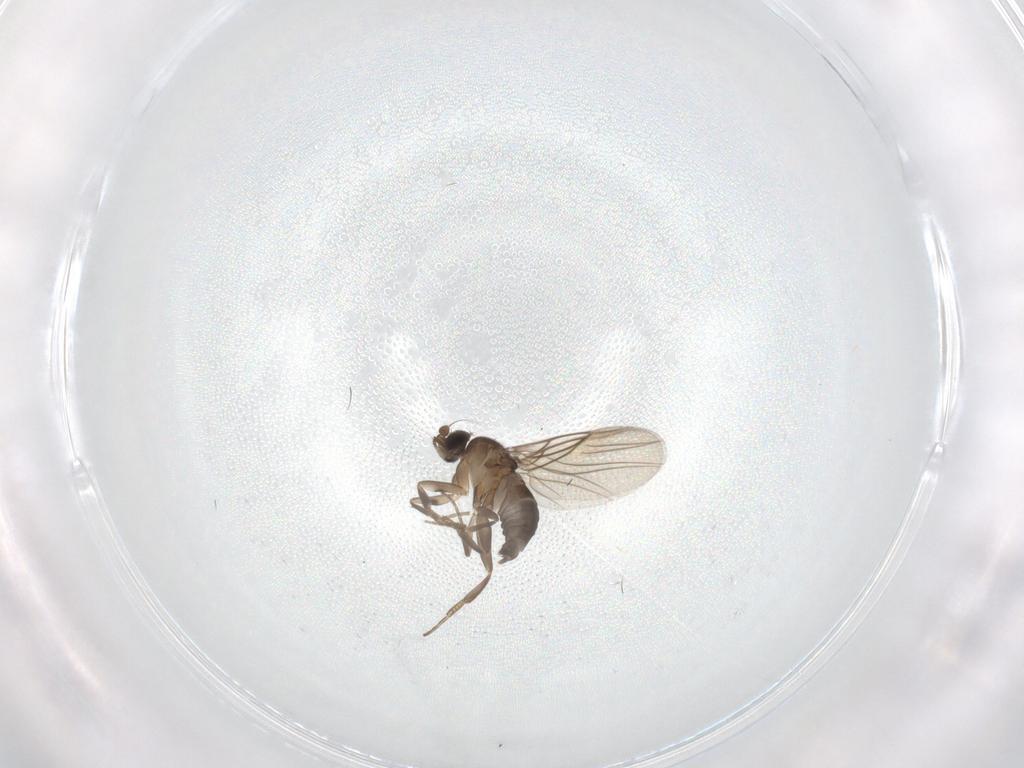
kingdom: Animalia
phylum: Arthropoda
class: Insecta
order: Diptera
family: Phoridae
